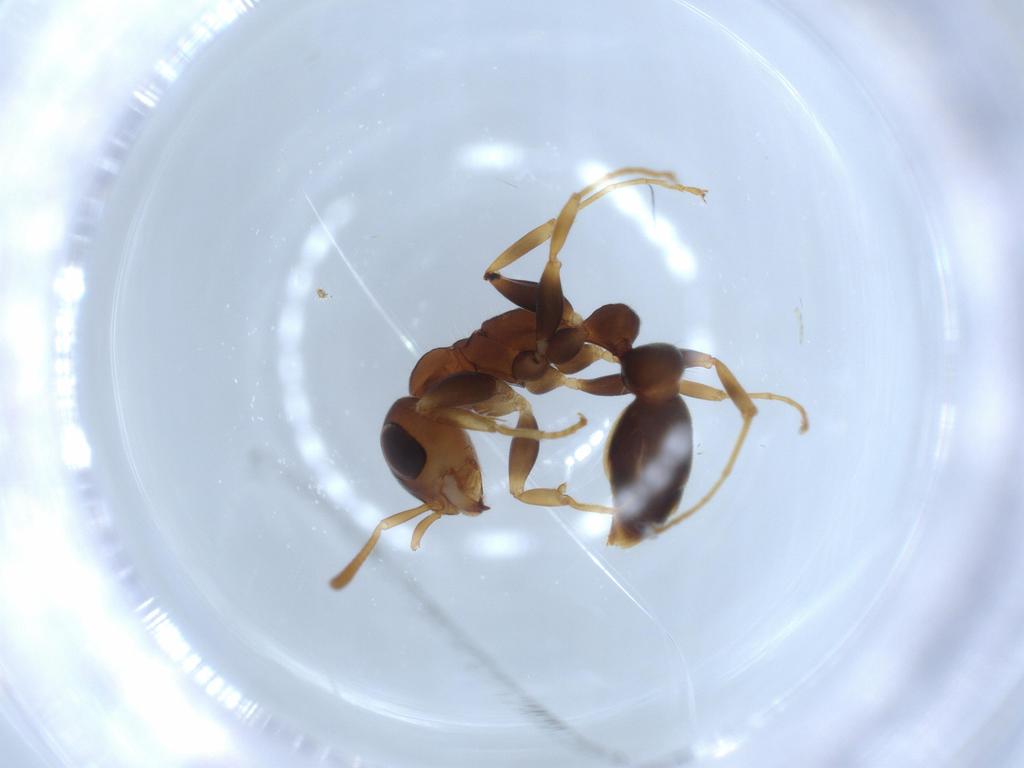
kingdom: Animalia
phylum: Arthropoda
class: Insecta
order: Hymenoptera
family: Formicidae
